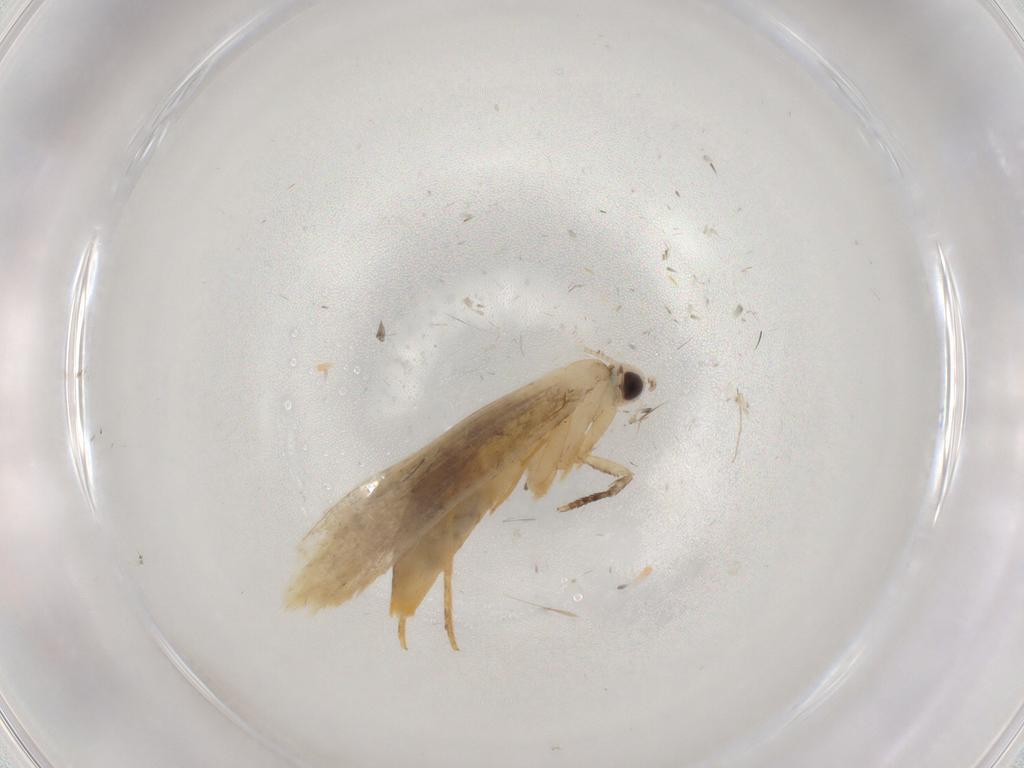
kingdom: Animalia
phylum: Arthropoda
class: Insecta
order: Lepidoptera
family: Tineidae
